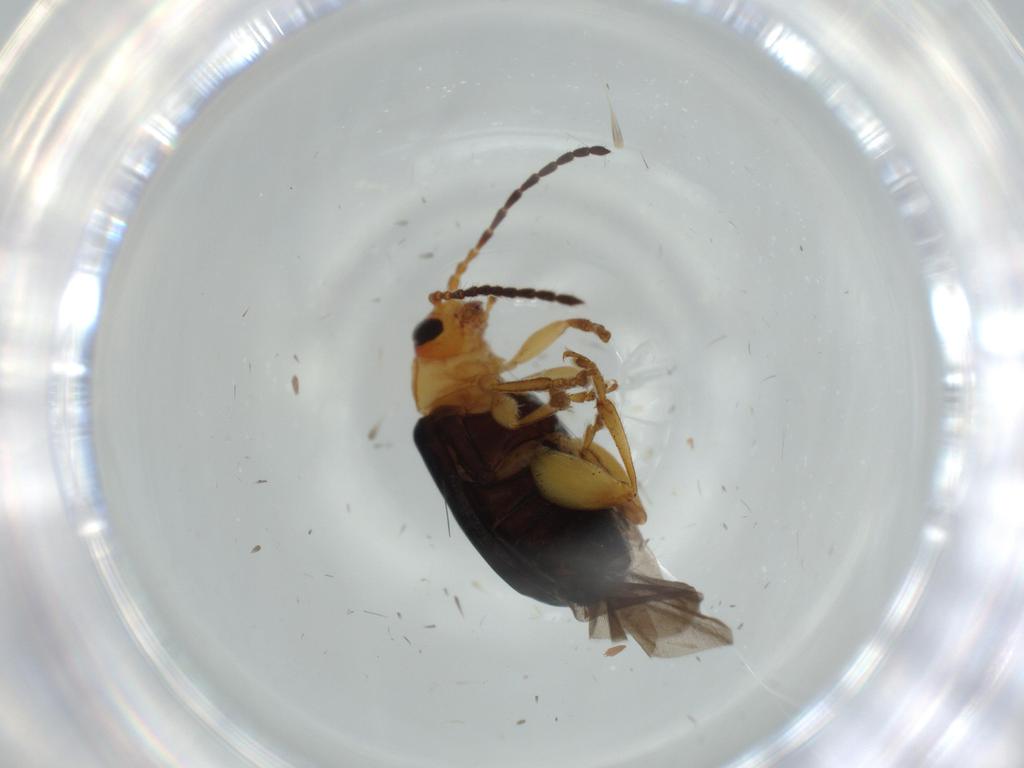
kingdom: Animalia
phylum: Arthropoda
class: Insecta
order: Coleoptera
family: Chrysomelidae
